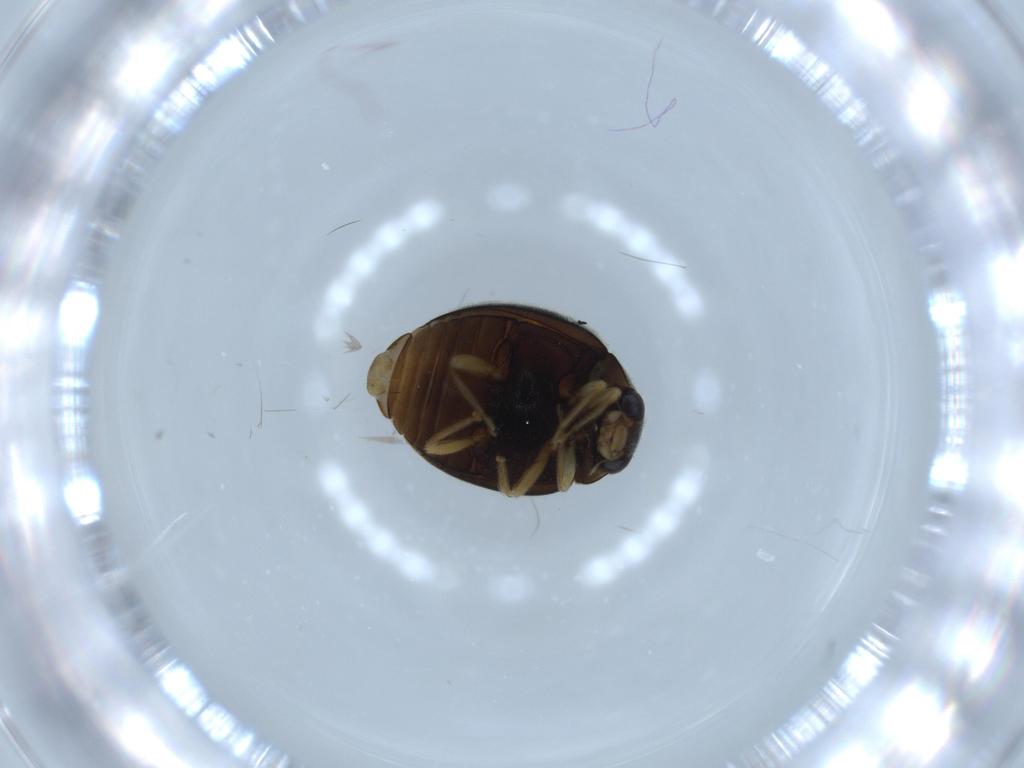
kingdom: Animalia
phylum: Arthropoda
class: Insecta
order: Coleoptera
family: Coccinellidae
